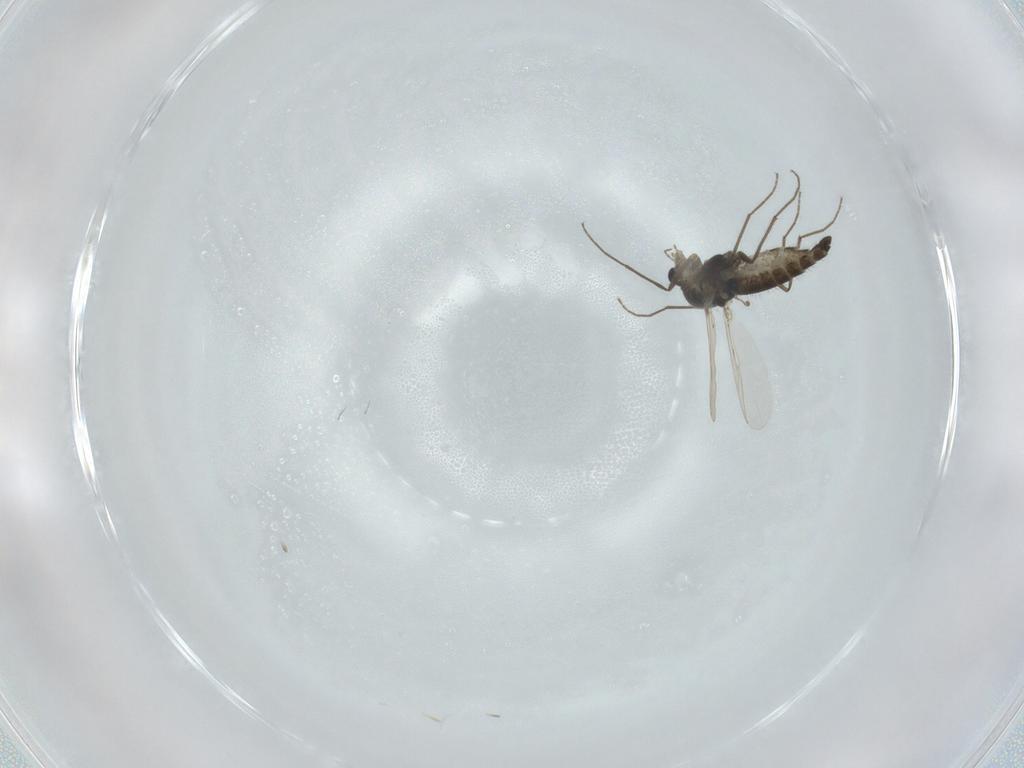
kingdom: Animalia
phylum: Arthropoda
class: Insecta
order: Diptera
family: Chironomidae
